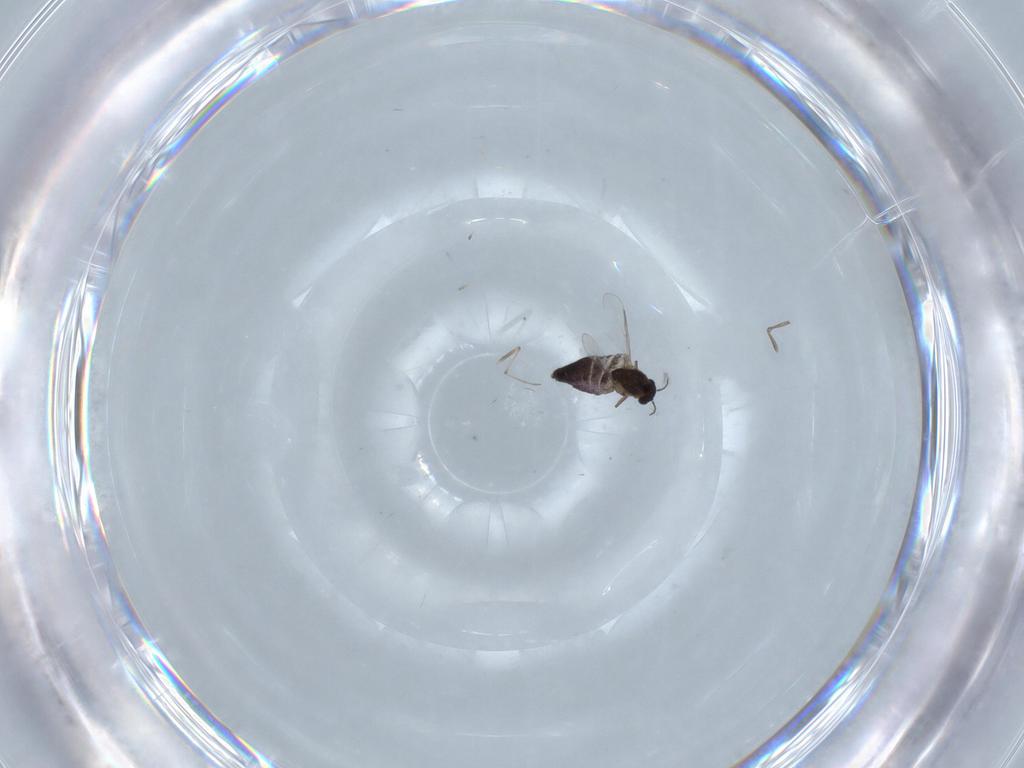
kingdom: Animalia
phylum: Arthropoda
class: Insecta
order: Diptera
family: Chironomidae
